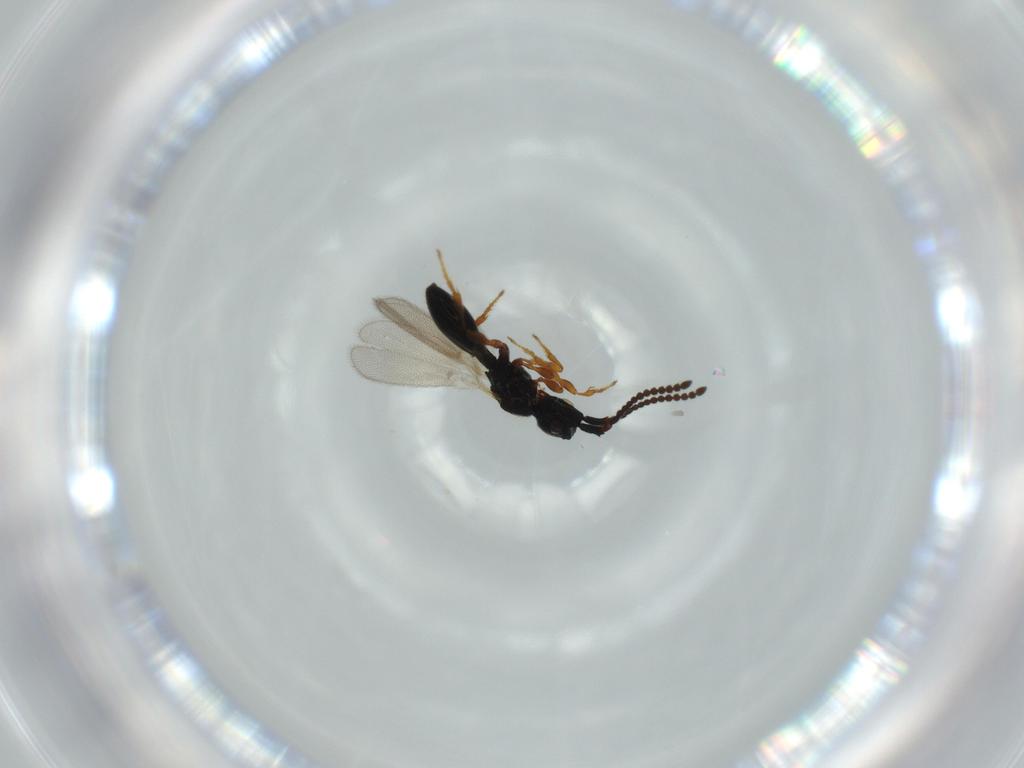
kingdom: Animalia
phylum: Arthropoda
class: Insecta
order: Hymenoptera
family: Diapriidae
